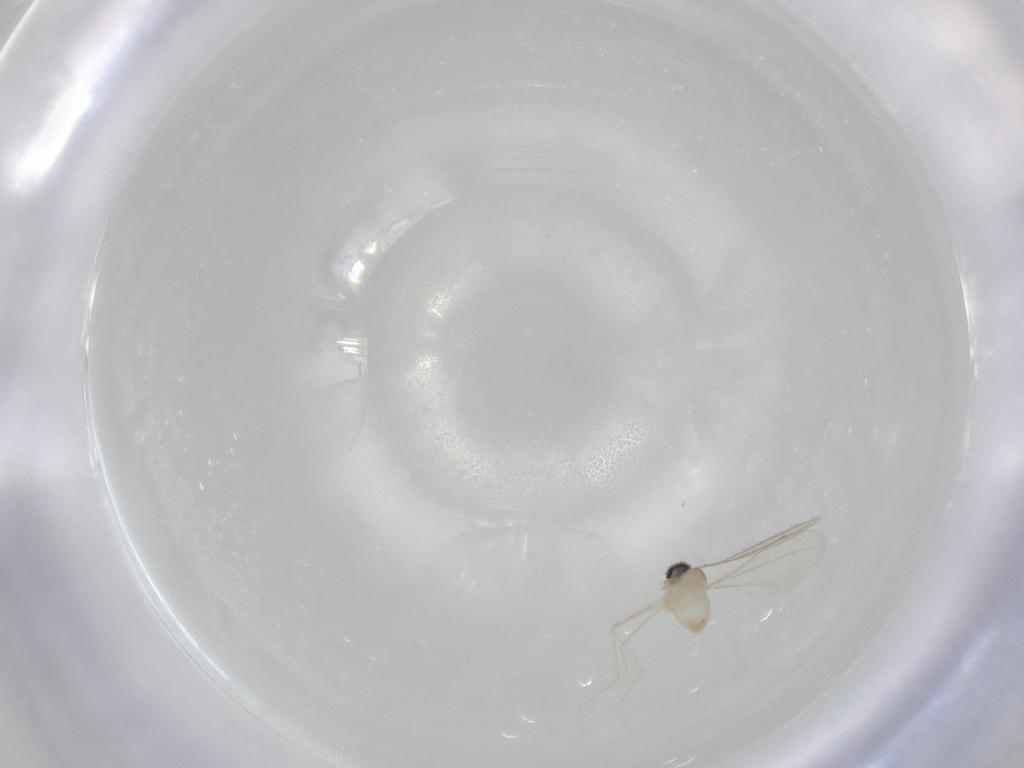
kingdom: Animalia
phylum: Arthropoda
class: Insecta
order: Diptera
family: Cecidomyiidae
